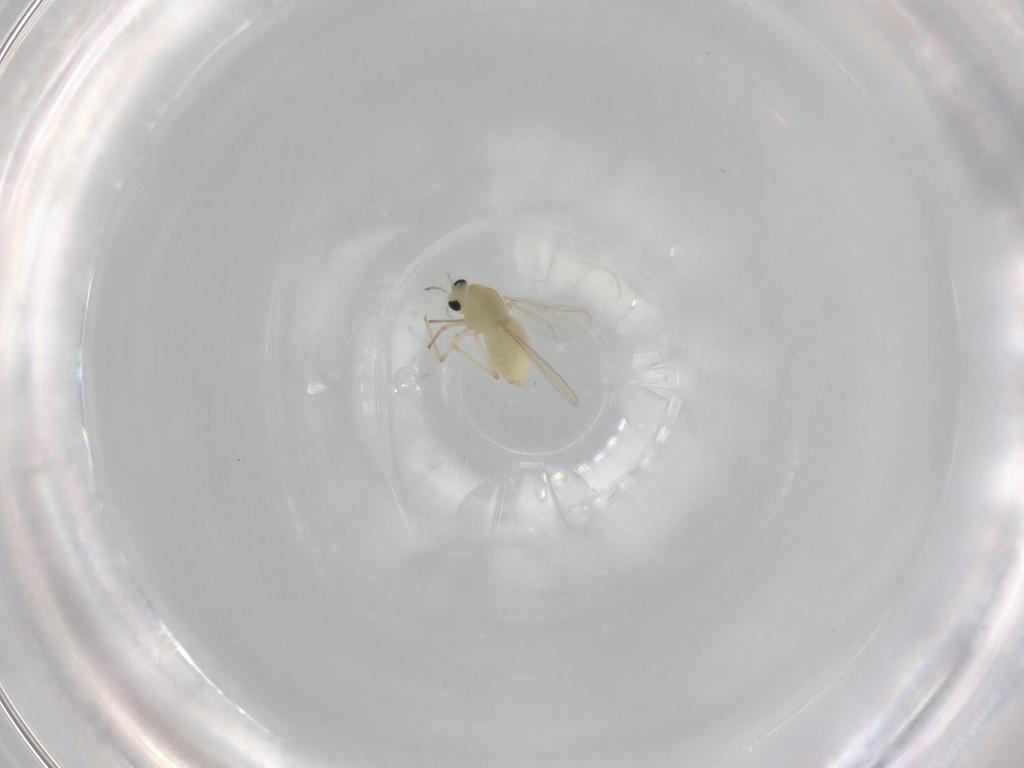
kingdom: Animalia
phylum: Arthropoda
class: Insecta
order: Diptera
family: Chironomidae
